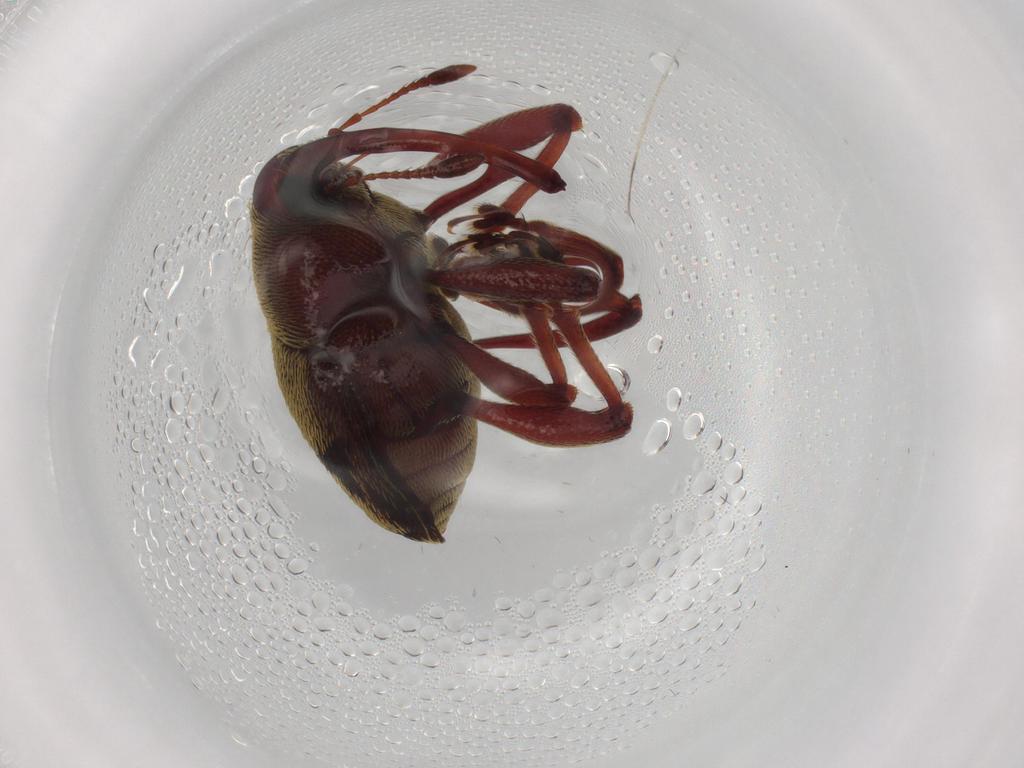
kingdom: Animalia
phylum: Arthropoda
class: Insecta
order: Coleoptera
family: Curculionidae
